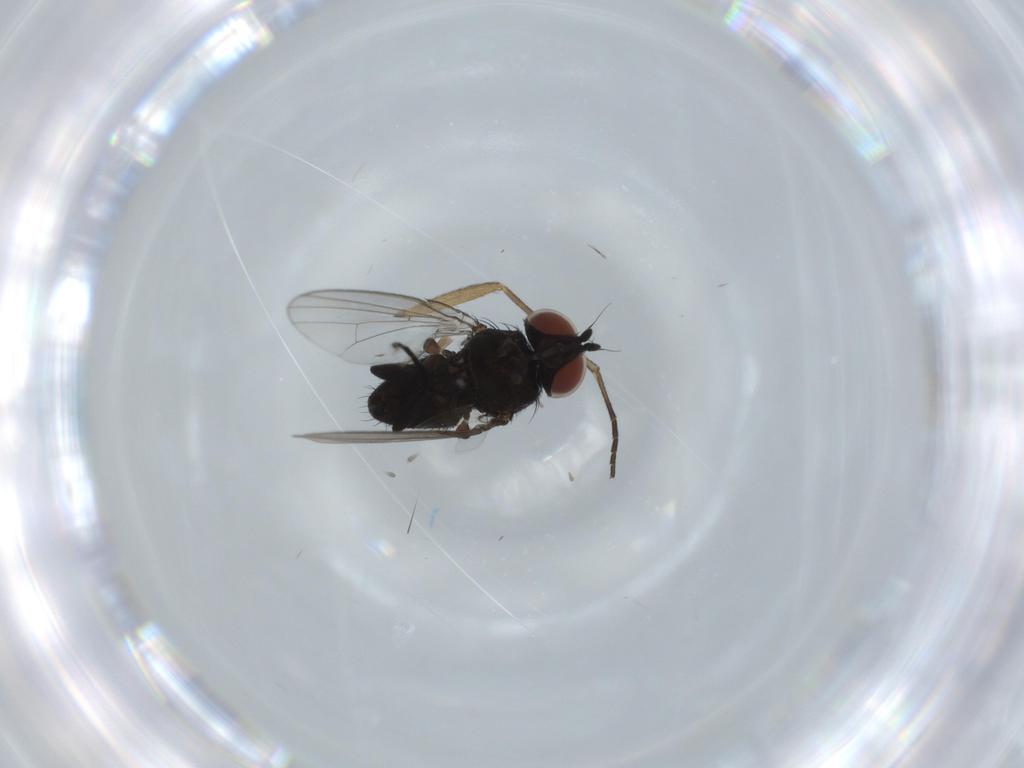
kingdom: Animalia
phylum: Arthropoda
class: Insecta
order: Diptera
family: Milichiidae
